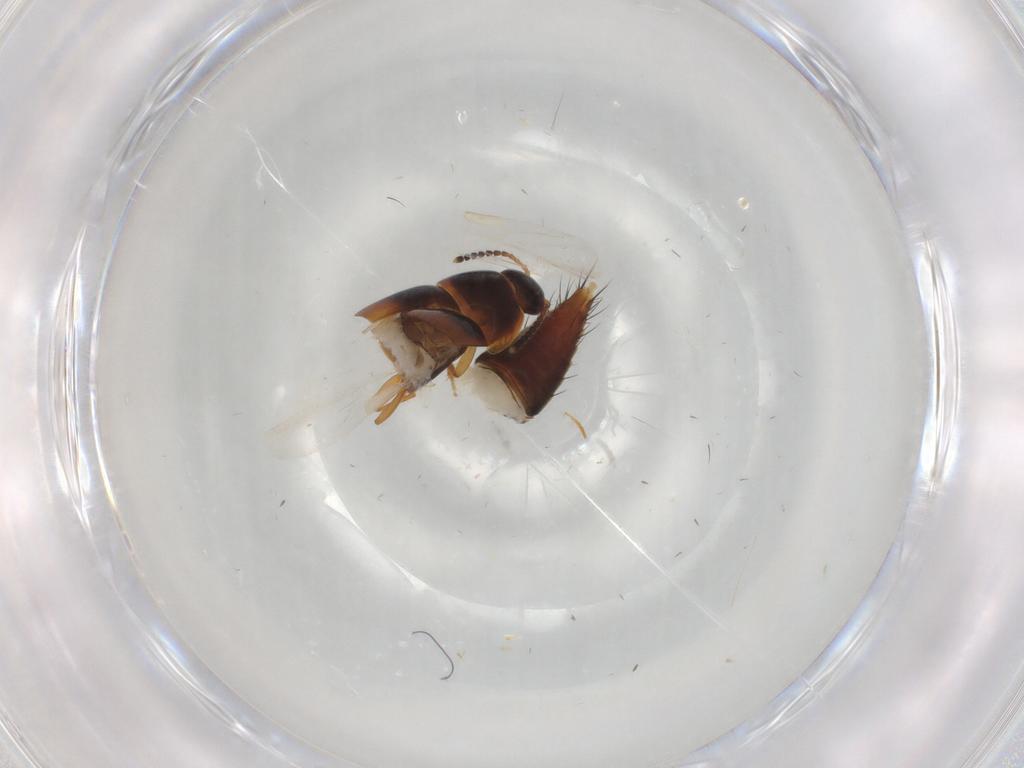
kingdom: Animalia
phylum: Arthropoda
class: Insecta
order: Coleoptera
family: Staphylinidae
